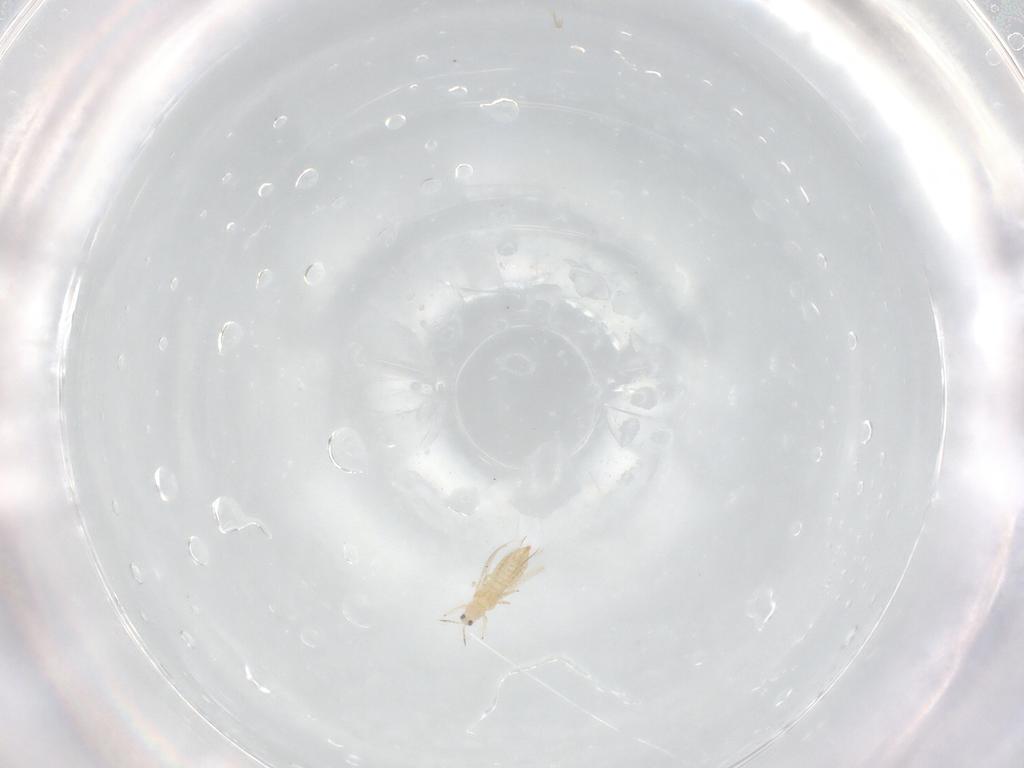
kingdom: Animalia
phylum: Arthropoda
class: Insecta
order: Thysanoptera
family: Thripidae
